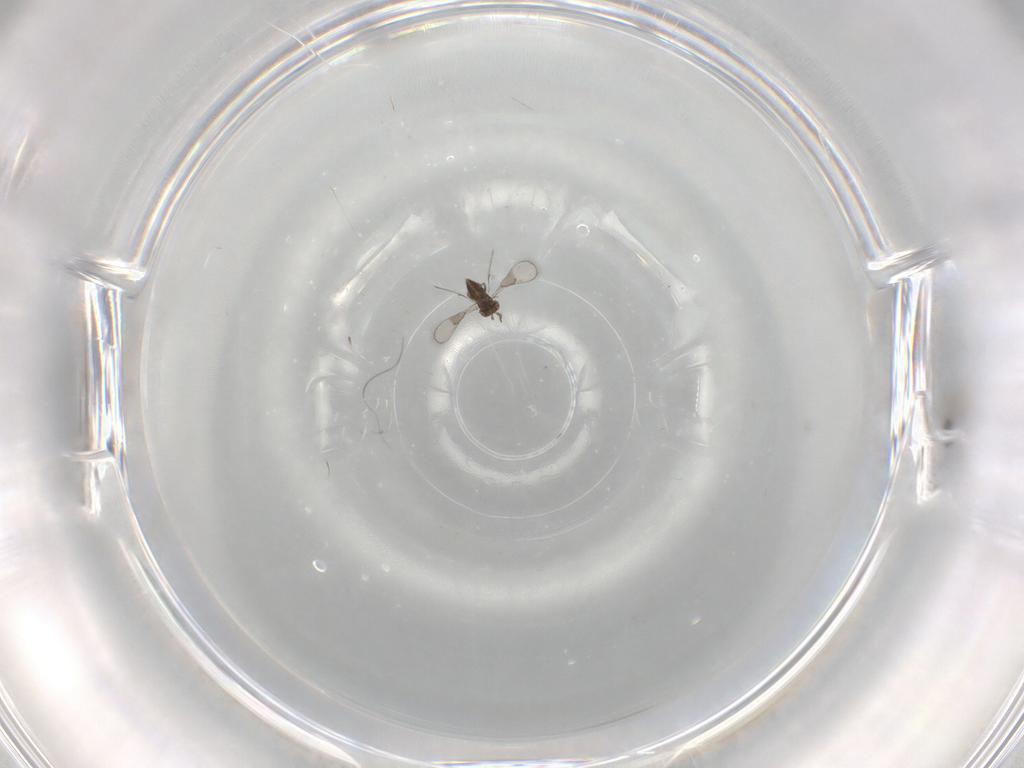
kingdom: Animalia
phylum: Arthropoda
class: Insecta
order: Hymenoptera
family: Trichogrammatidae
